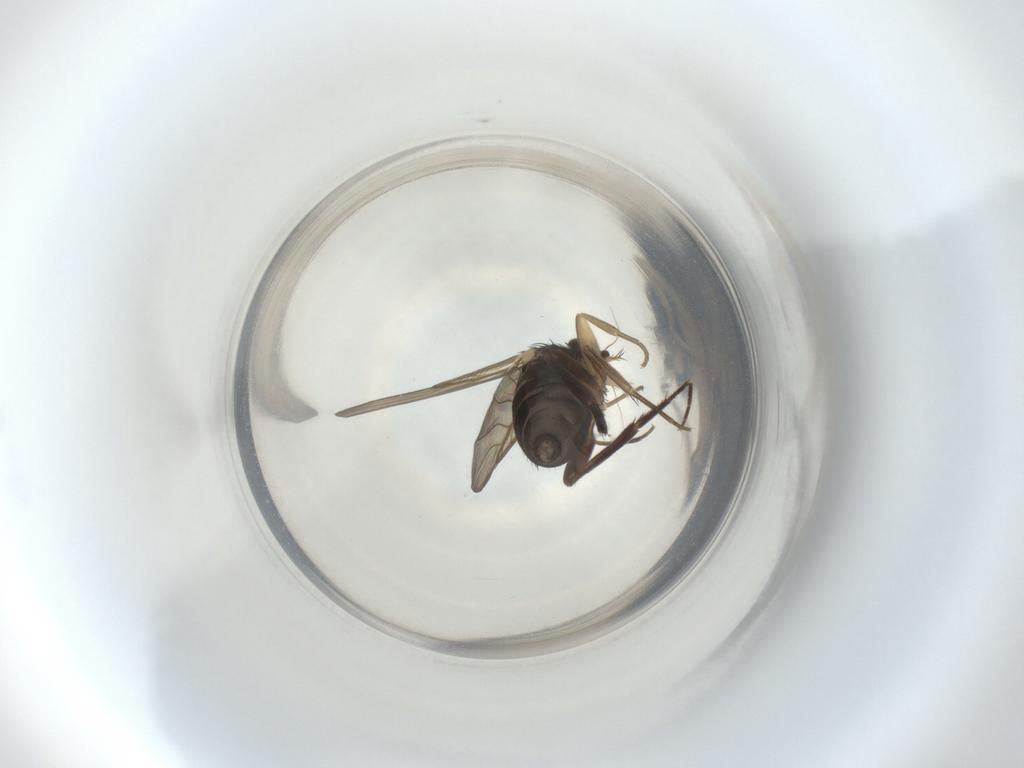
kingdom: Animalia
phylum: Arthropoda
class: Insecta
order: Diptera
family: Phoridae
